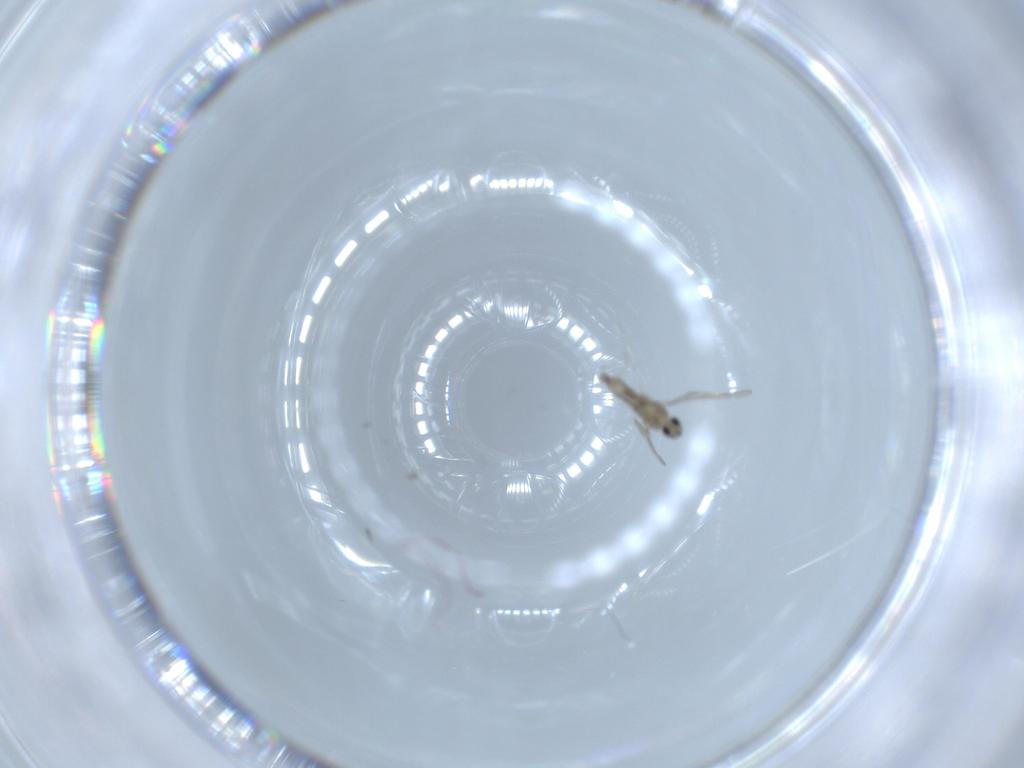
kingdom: Animalia
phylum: Arthropoda
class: Insecta
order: Diptera
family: Cecidomyiidae
